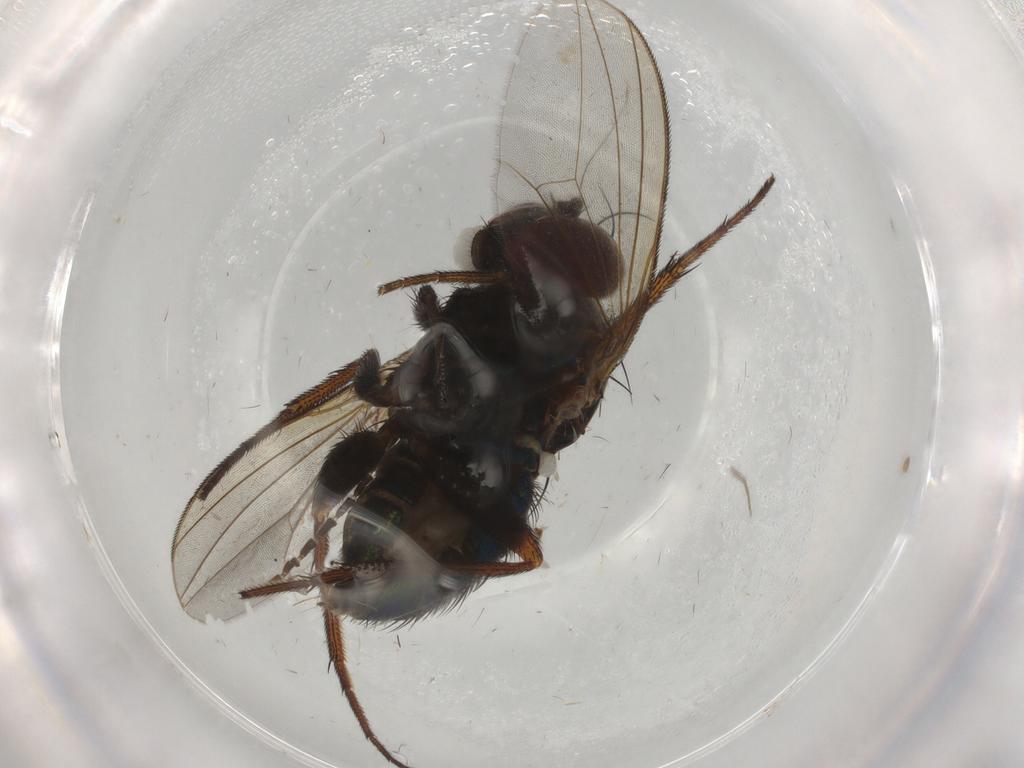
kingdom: Animalia
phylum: Arthropoda
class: Insecta
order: Diptera
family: Dolichopodidae
